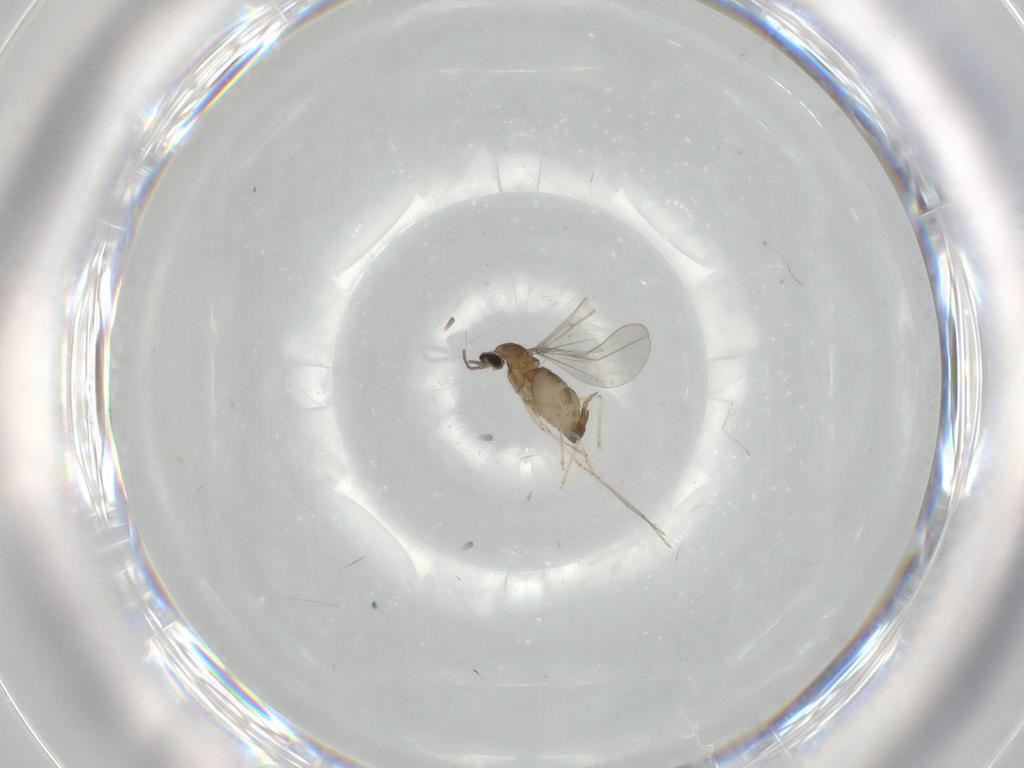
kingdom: Animalia
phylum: Arthropoda
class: Insecta
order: Diptera
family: Cecidomyiidae
